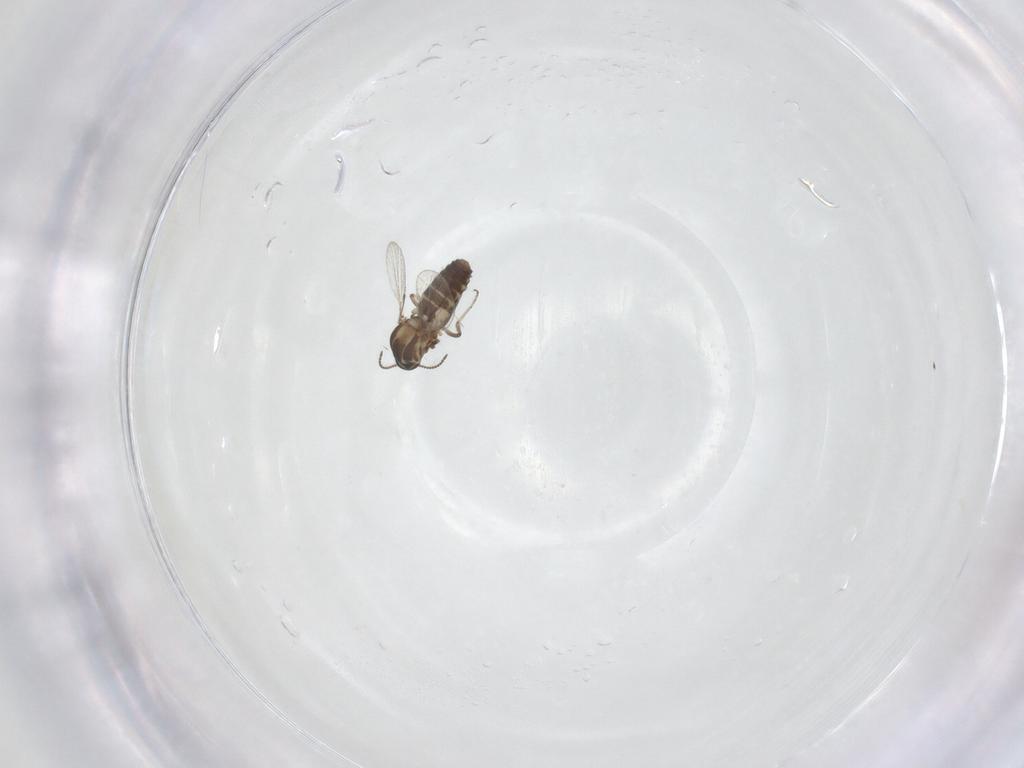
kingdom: Animalia
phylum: Arthropoda
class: Insecta
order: Diptera
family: Ceratopogonidae
